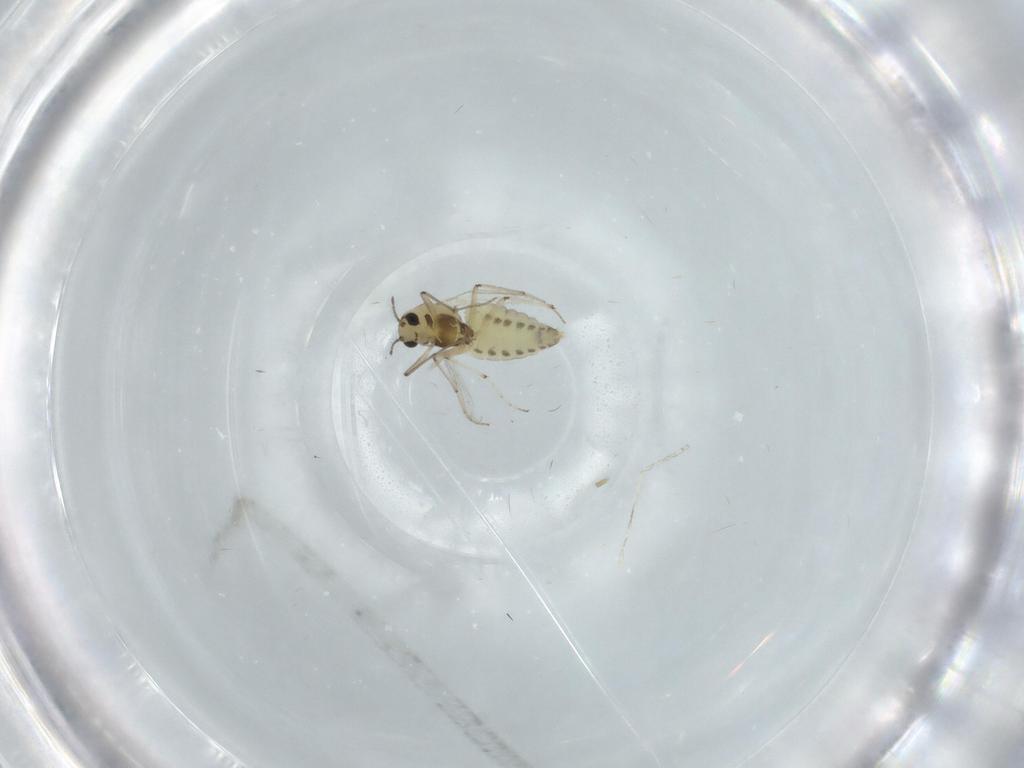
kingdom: Animalia
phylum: Arthropoda
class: Insecta
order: Diptera
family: Chironomidae
